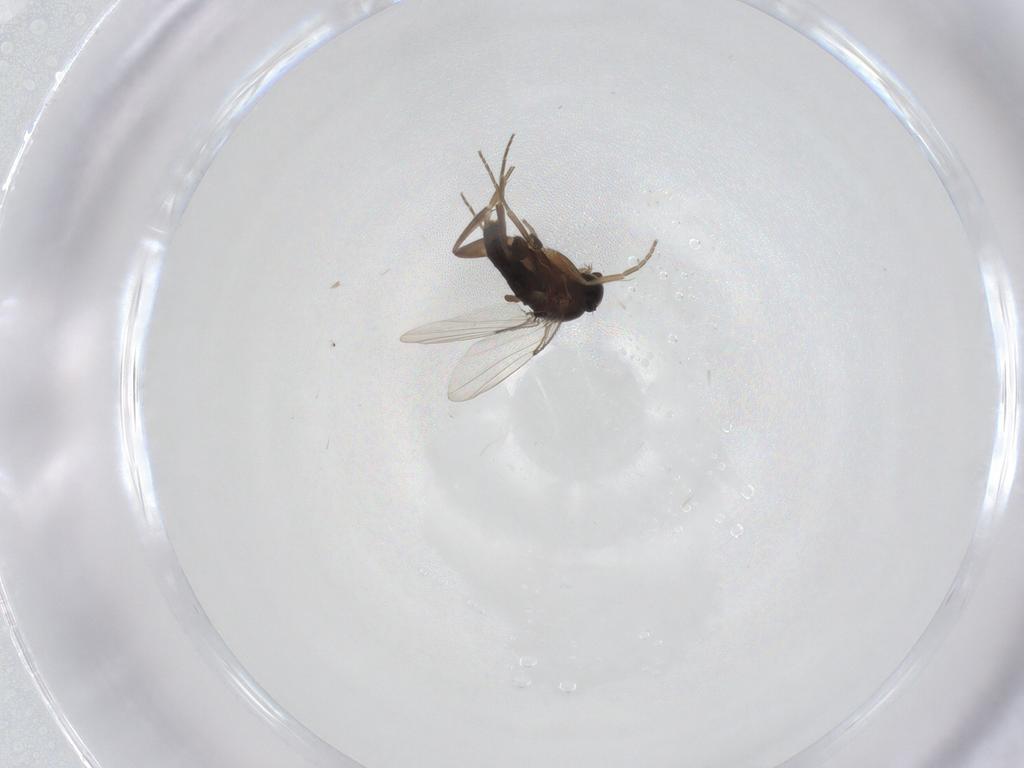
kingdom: Animalia
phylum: Arthropoda
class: Insecta
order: Diptera
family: Phoridae
